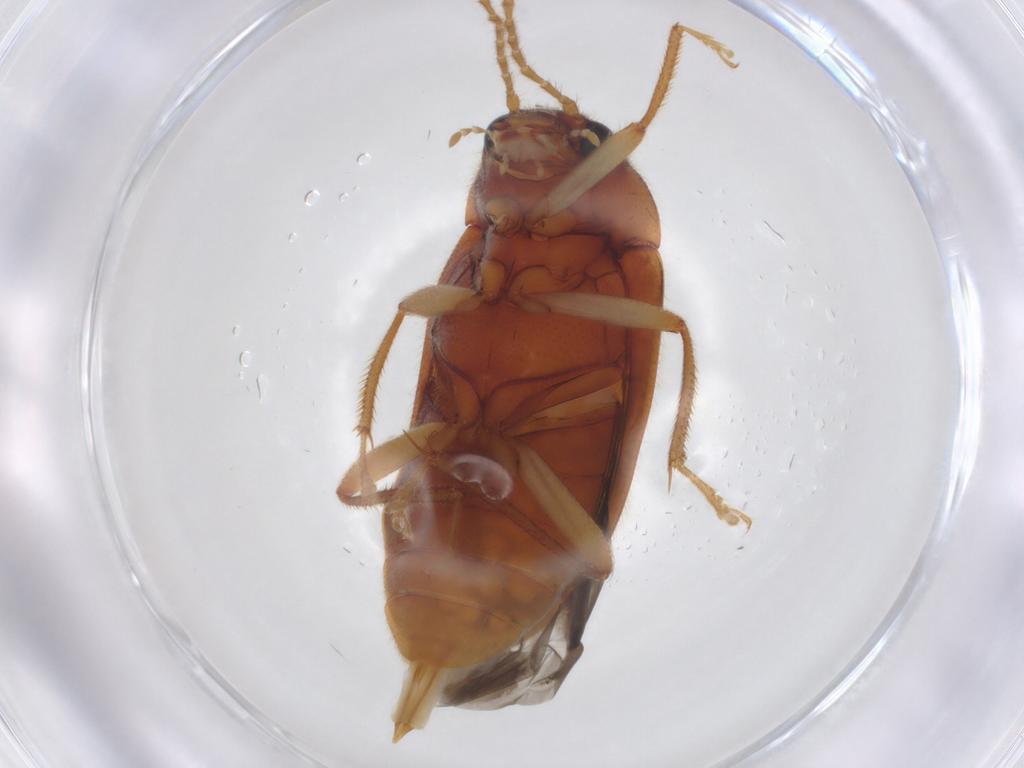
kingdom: Animalia
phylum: Arthropoda
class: Insecta
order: Coleoptera
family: Ptilodactylidae
